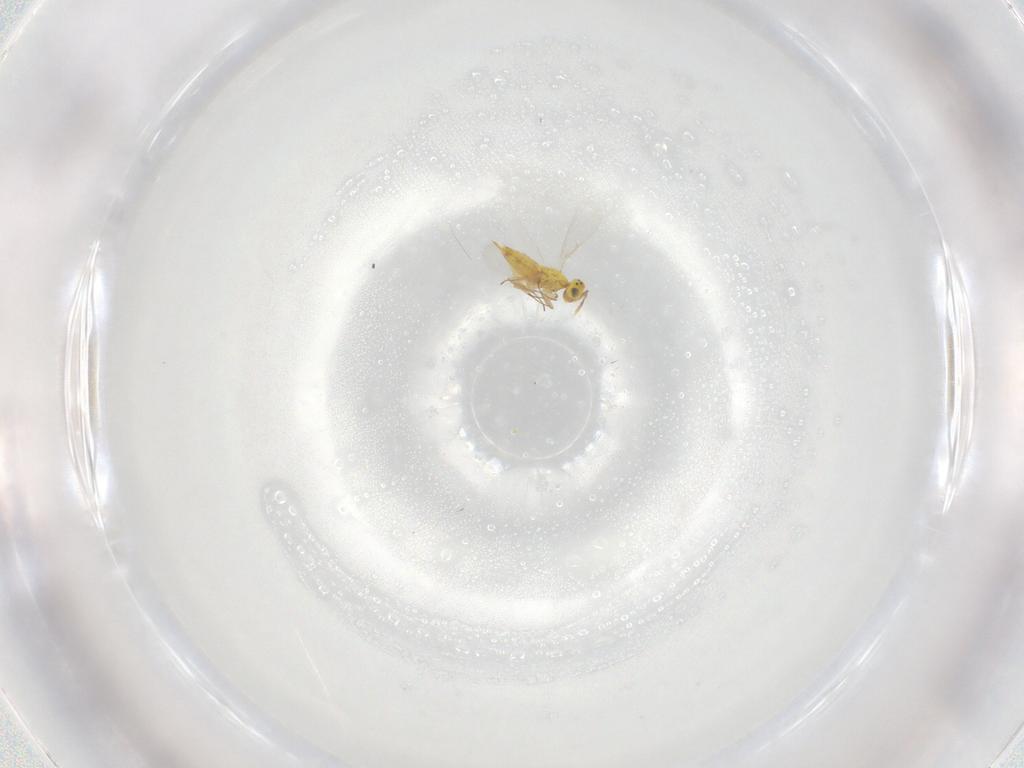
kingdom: Animalia
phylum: Arthropoda
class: Insecta
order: Hymenoptera
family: Aphelinidae
